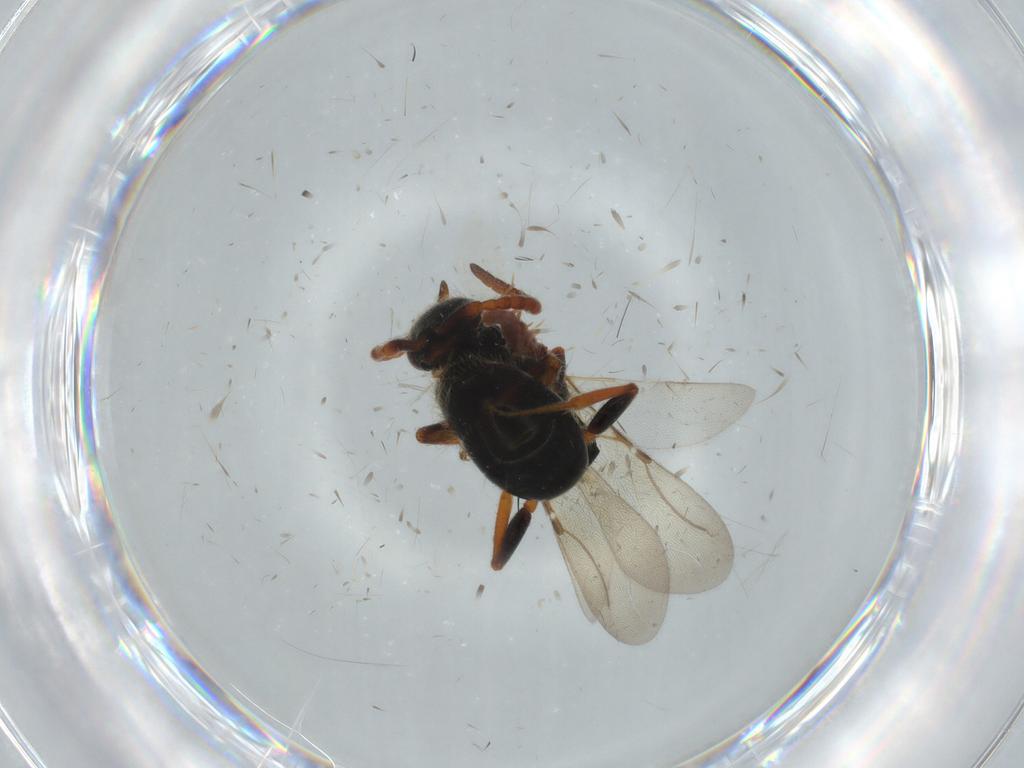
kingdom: Animalia
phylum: Arthropoda
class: Insecta
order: Hymenoptera
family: Bethylidae
